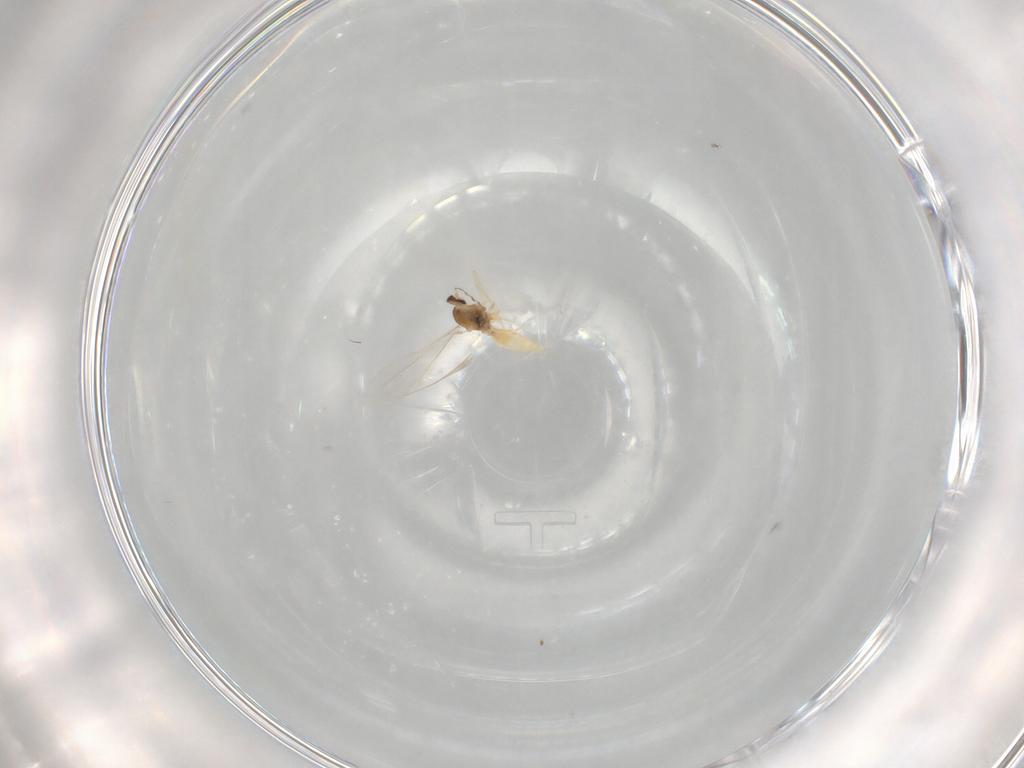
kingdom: Animalia
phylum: Arthropoda
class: Insecta
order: Diptera
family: Cecidomyiidae
